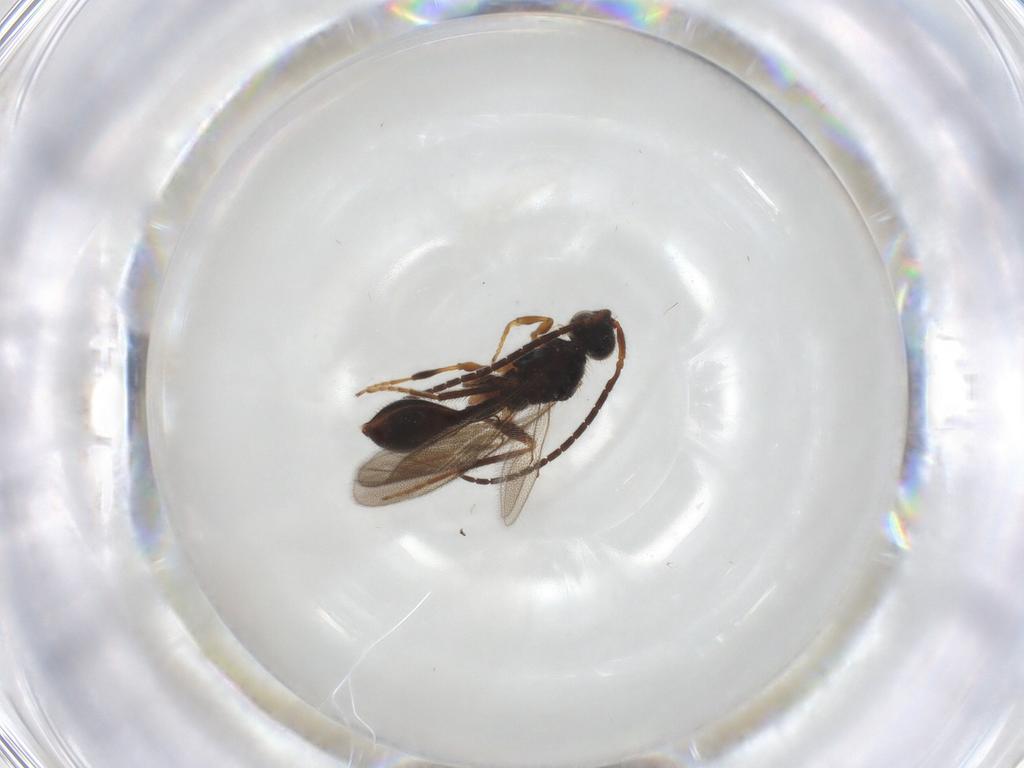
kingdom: Animalia
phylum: Arthropoda
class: Insecta
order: Hymenoptera
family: Diapriidae
